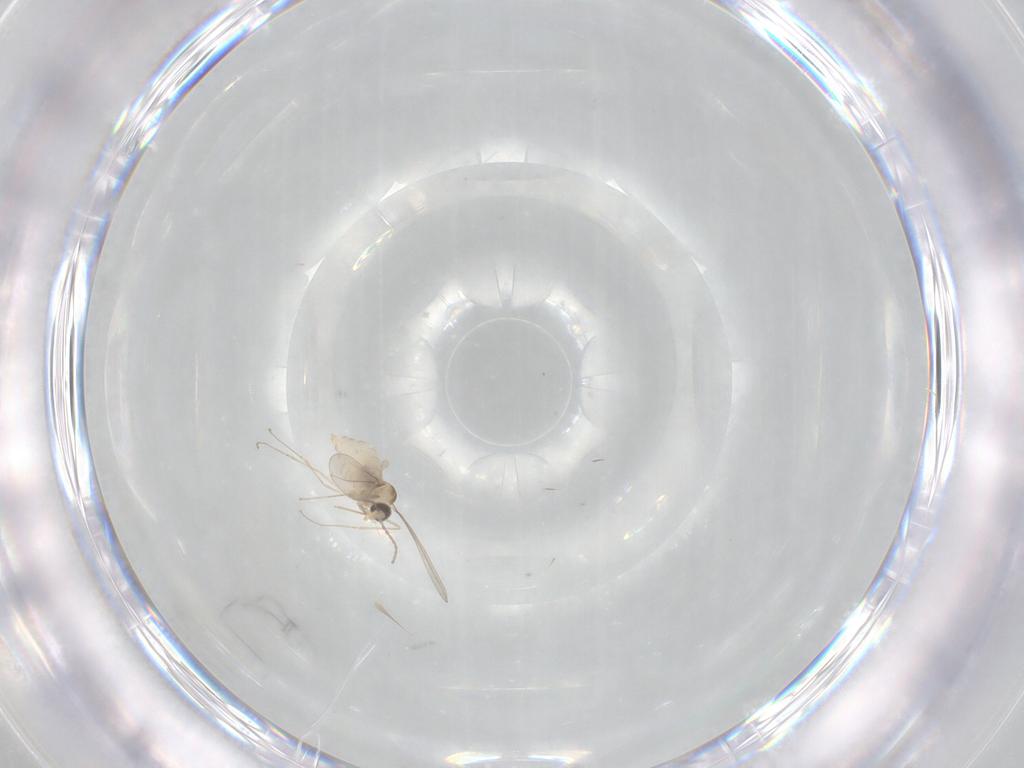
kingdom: Animalia
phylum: Arthropoda
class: Insecta
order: Diptera
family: Cecidomyiidae
